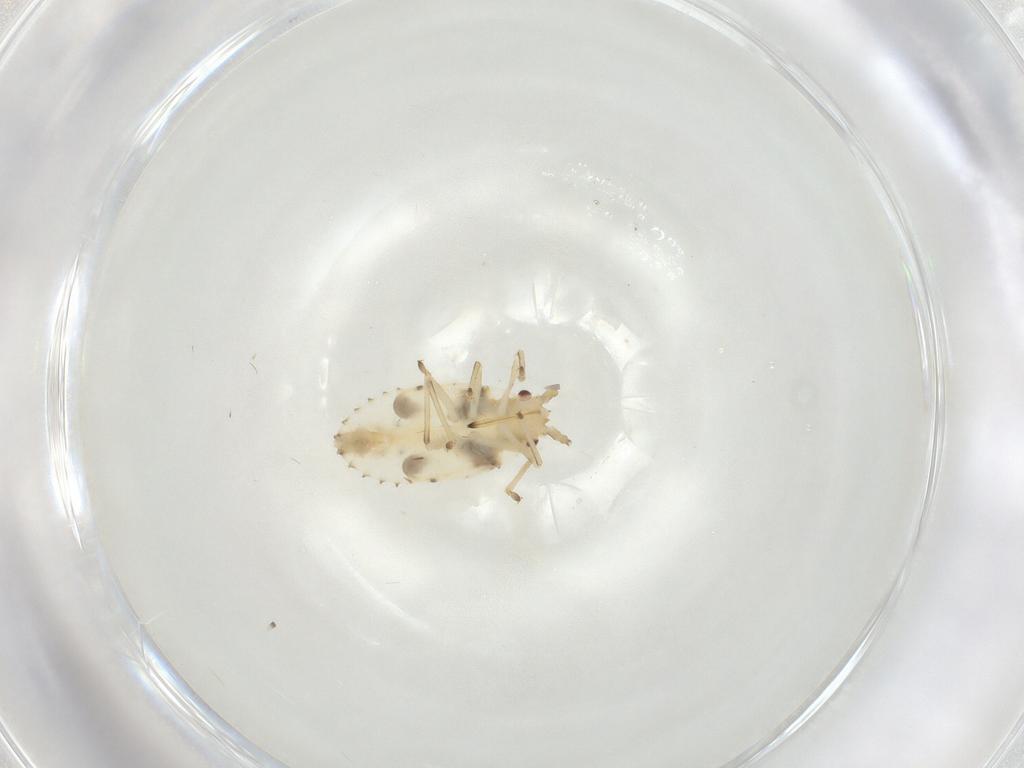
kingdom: Animalia
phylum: Arthropoda
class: Insecta
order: Hemiptera
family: Tingidae
